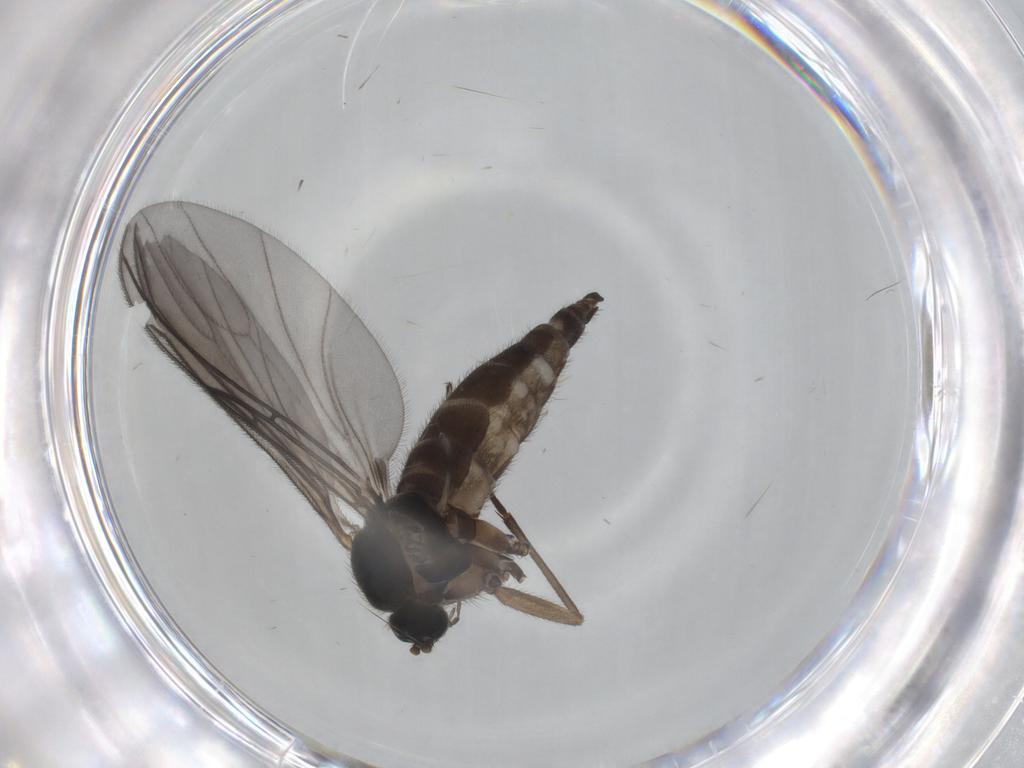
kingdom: Animalia
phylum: Arthropoda
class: Insecta
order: Diptera
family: Sciaridae
